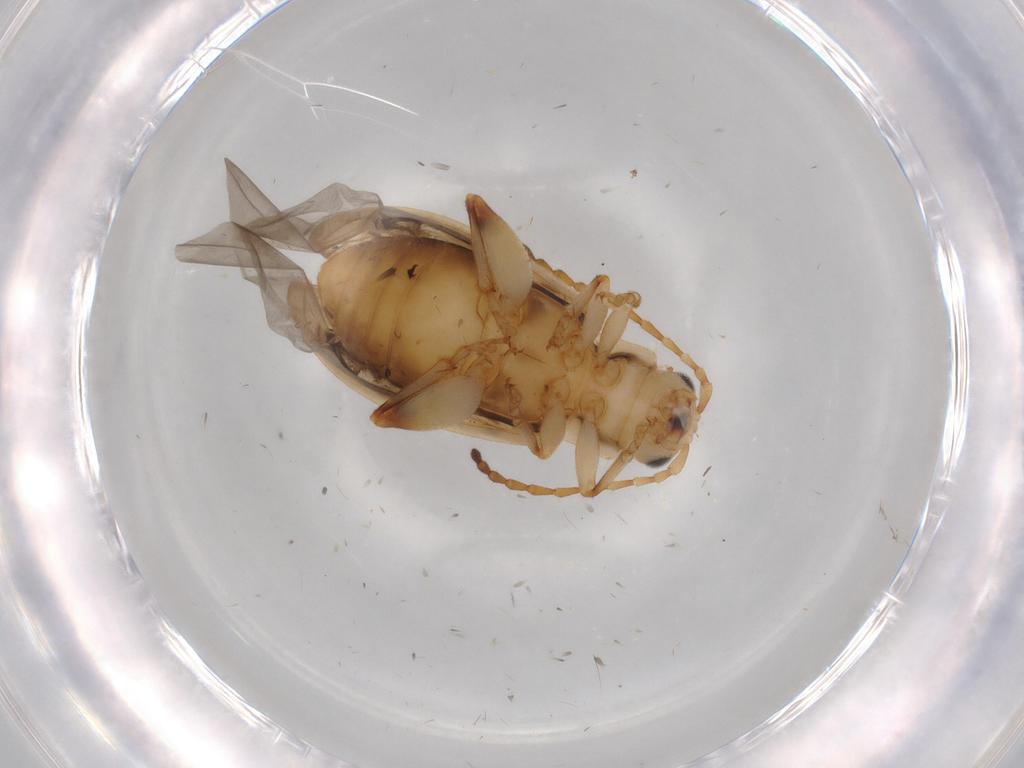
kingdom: Animalia
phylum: Arthropoda
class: Insecta
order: Coleoptera
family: Chrysomelidae
